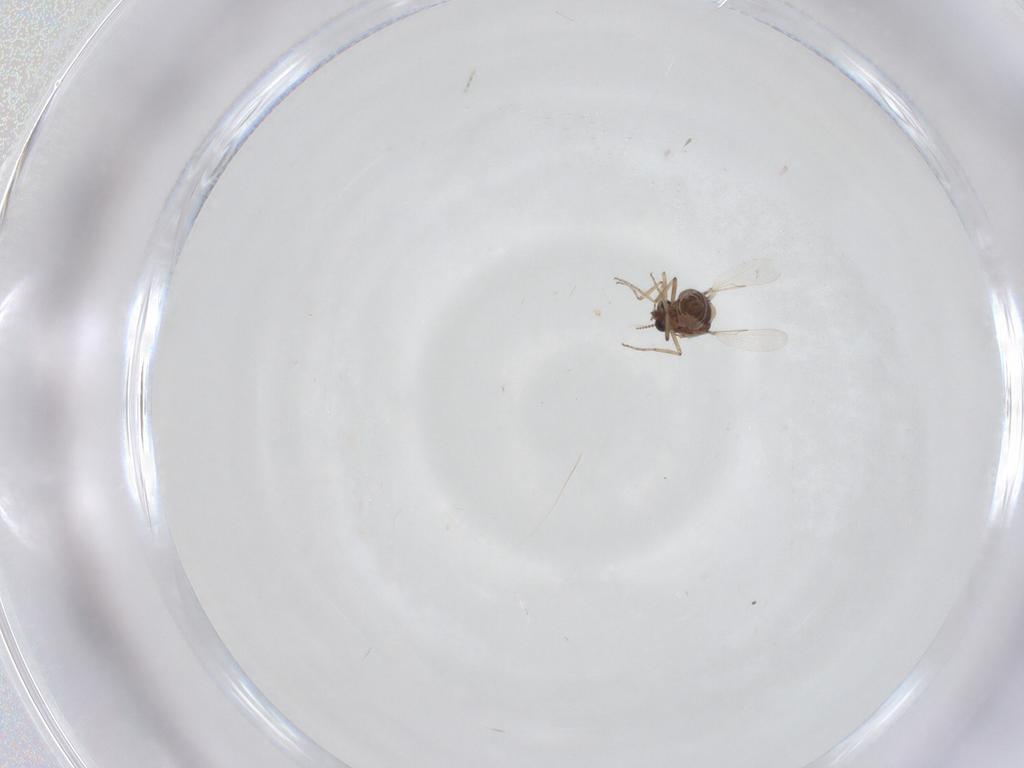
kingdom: Animalia
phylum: Arthropoda
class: Insecta
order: Diptera
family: Ceratopogonidae
